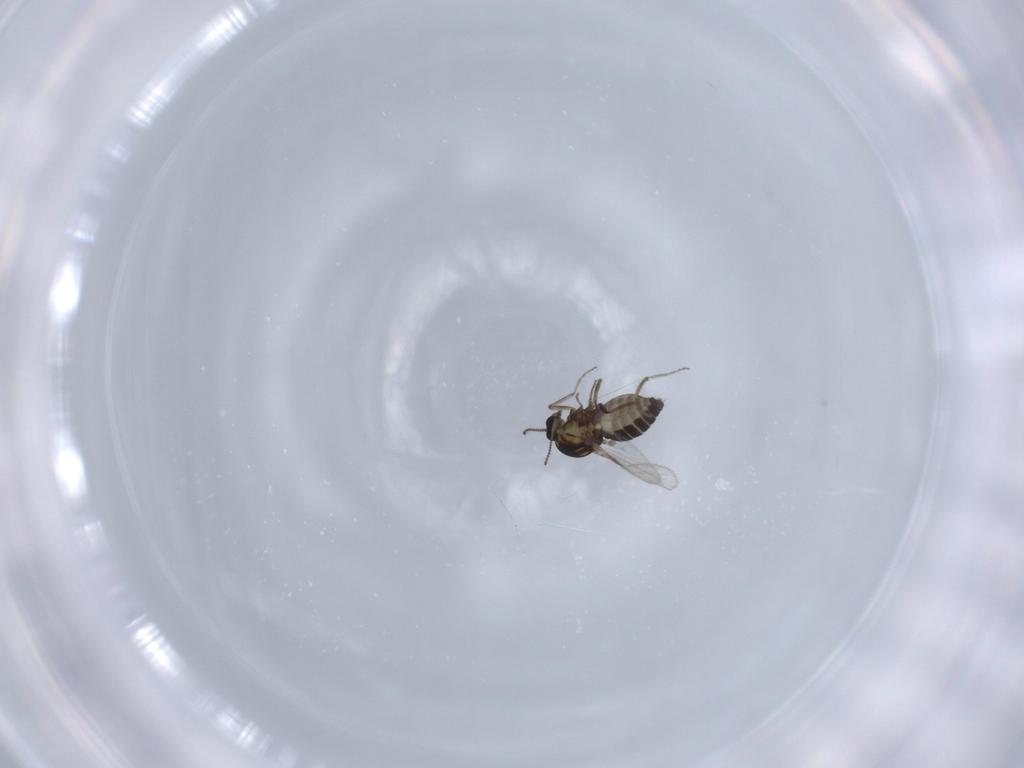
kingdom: Animalia
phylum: Arthropoda
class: Insecta
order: Diptera
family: Ceratopogonidae
